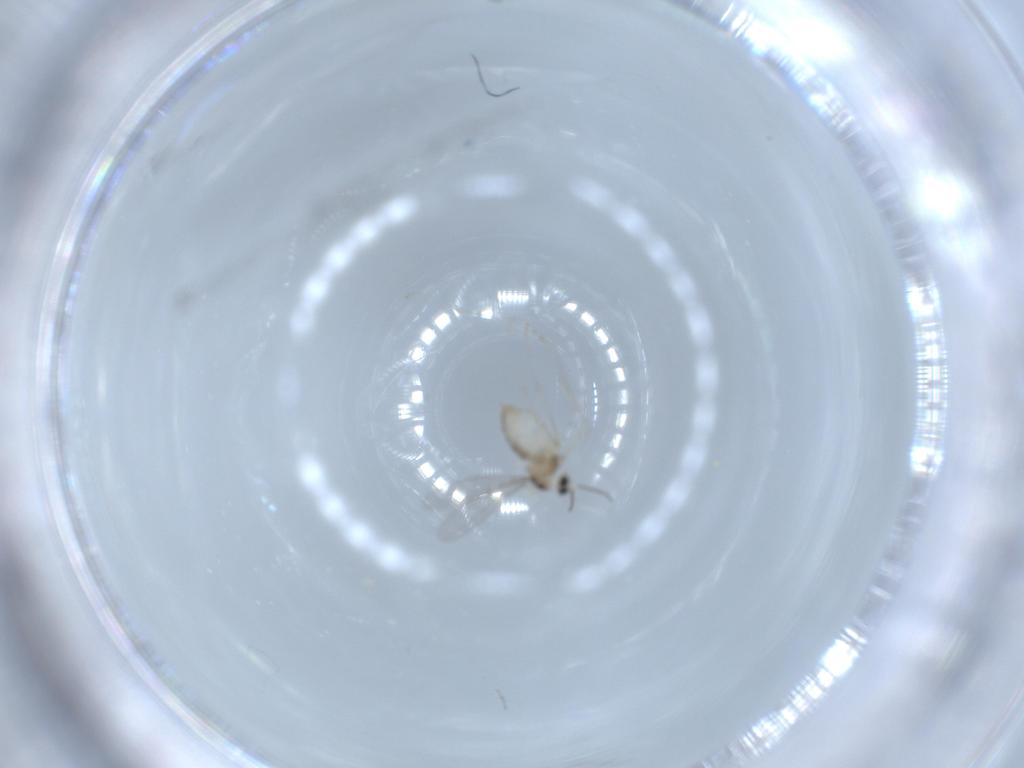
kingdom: Animalia
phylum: Arthropoda
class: Insecta
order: Diptera
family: Cecidomyiidae
